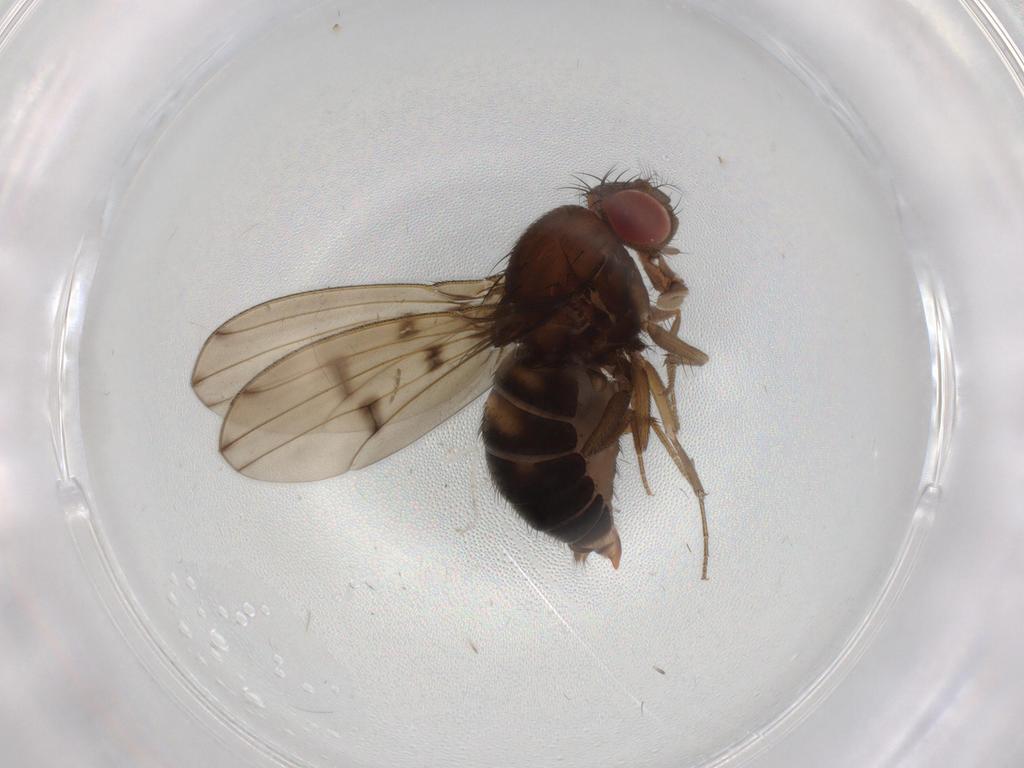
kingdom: Animalia
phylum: Arthropoda
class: Insecta
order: Diptera
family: Drosophilidae
